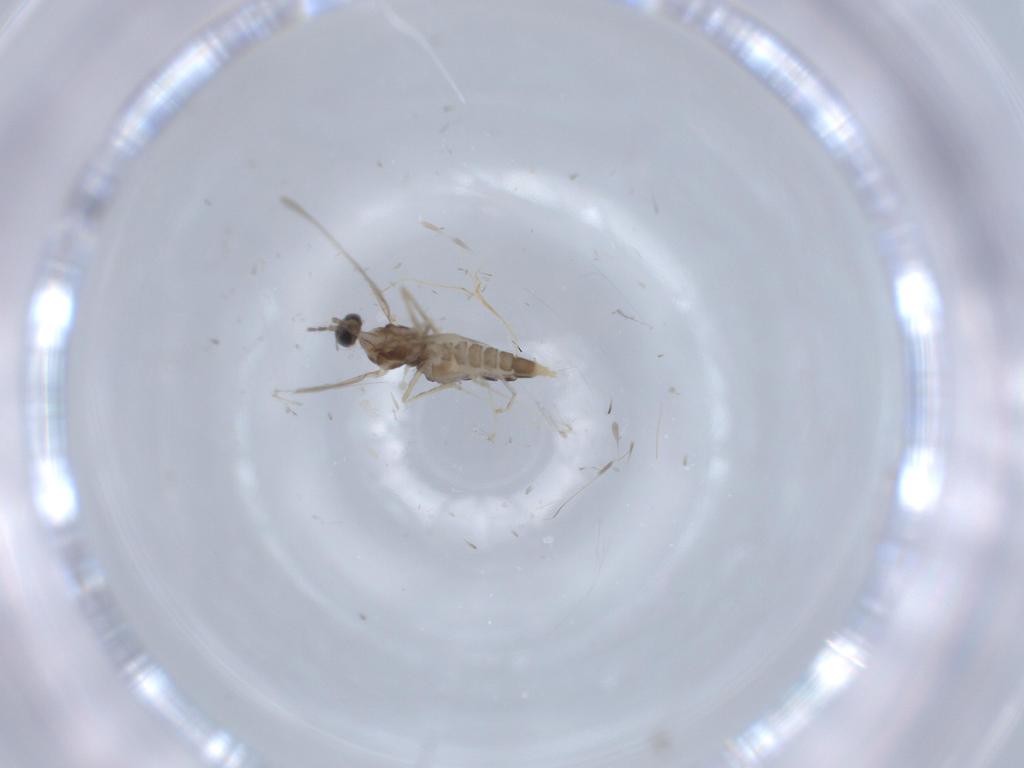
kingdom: Animalia
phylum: Arthropoda
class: Insecta
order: Diptera
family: Cecidomyiidae
